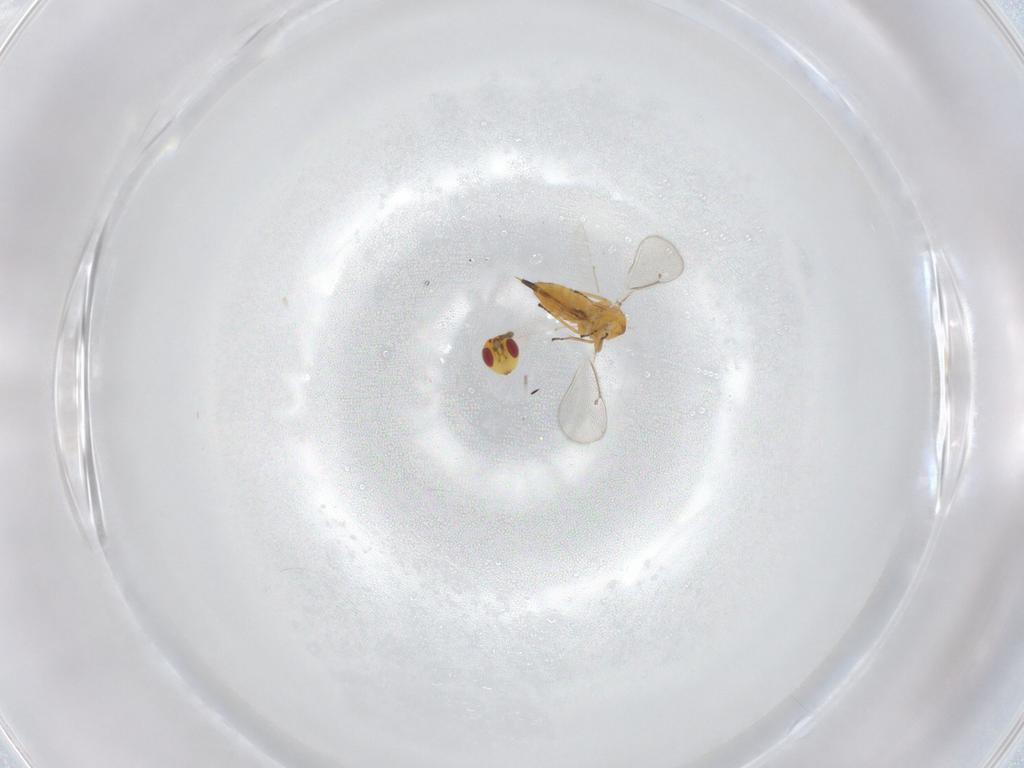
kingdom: Animalia
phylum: Arthropoda
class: Insecta
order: Hymenoptera
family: Eulophidae
